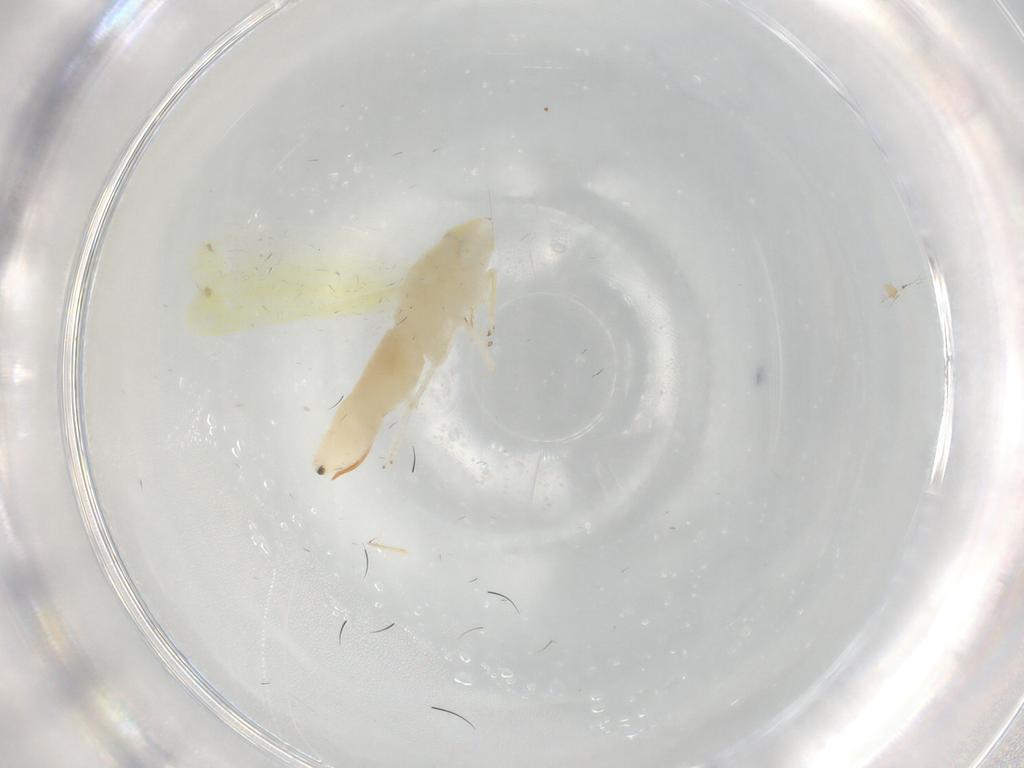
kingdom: Animalia
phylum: Arthropoda
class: Insecta
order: Hemiptera
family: Cicadellidae
